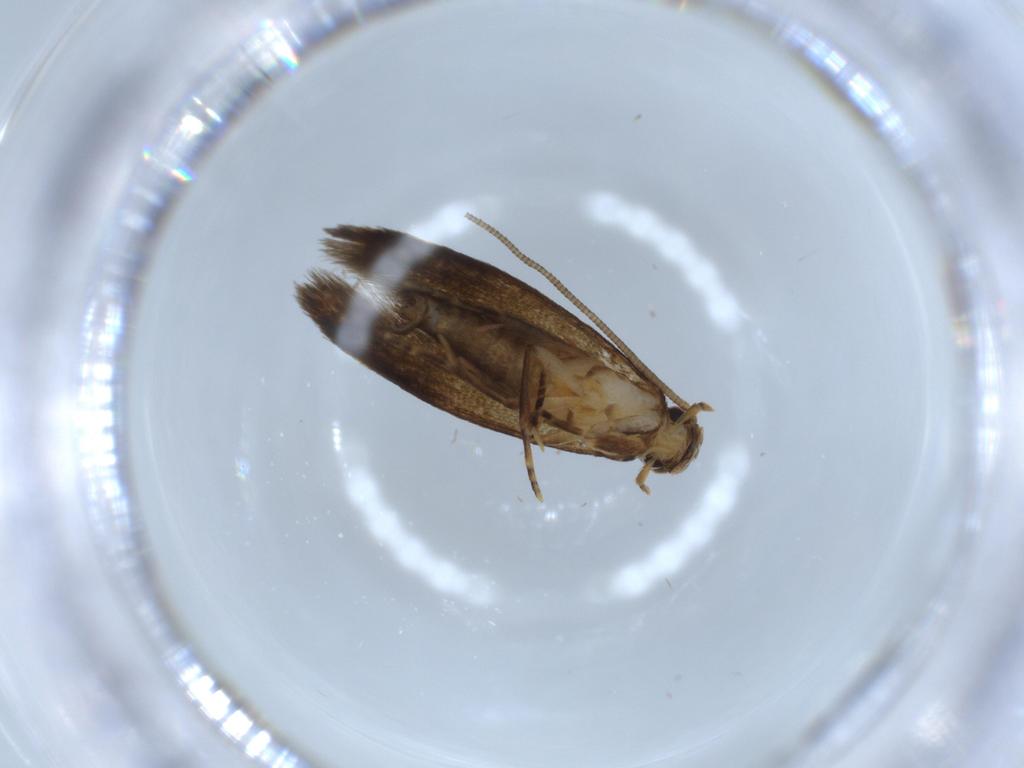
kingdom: Animalia
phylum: Arthropoda
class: Insecta
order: Lepidoptera
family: Tineidae
